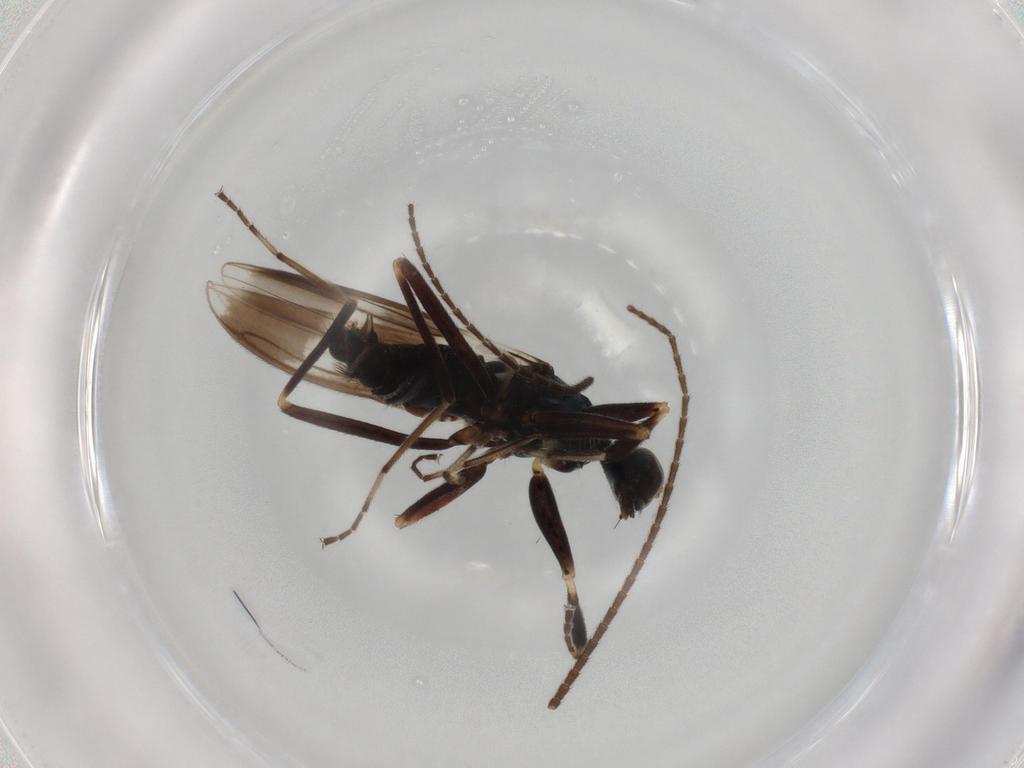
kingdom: Animalia
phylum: Arthropoda
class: Insecta
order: Diptera
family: Hybotidae
